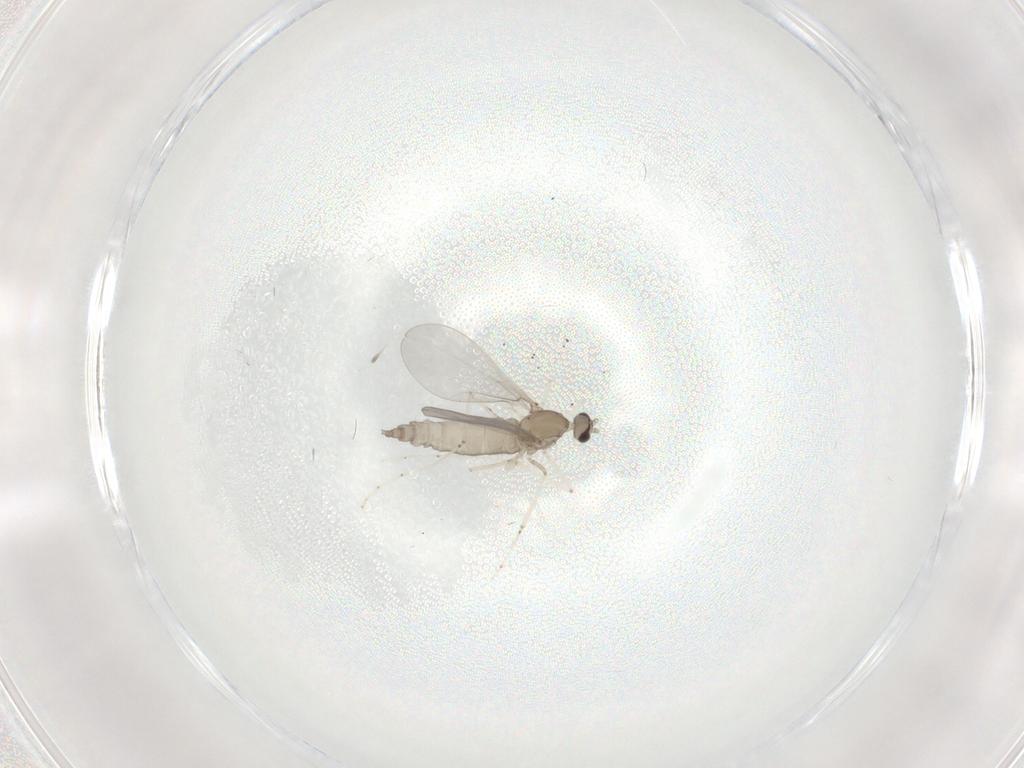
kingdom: Animalia
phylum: Arthropoda
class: Insecta
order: Diptera
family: Cecidomyiidae
